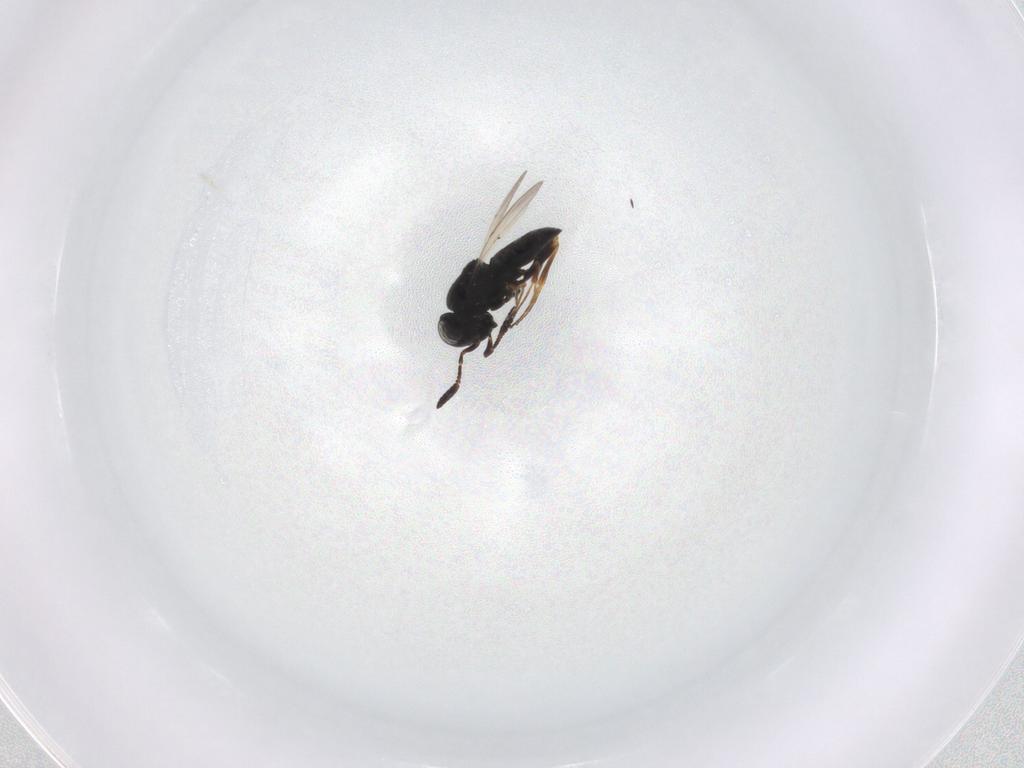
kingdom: Animalia
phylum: Arthropoda
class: Insecta
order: Hymenoptera
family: Scelionidae
